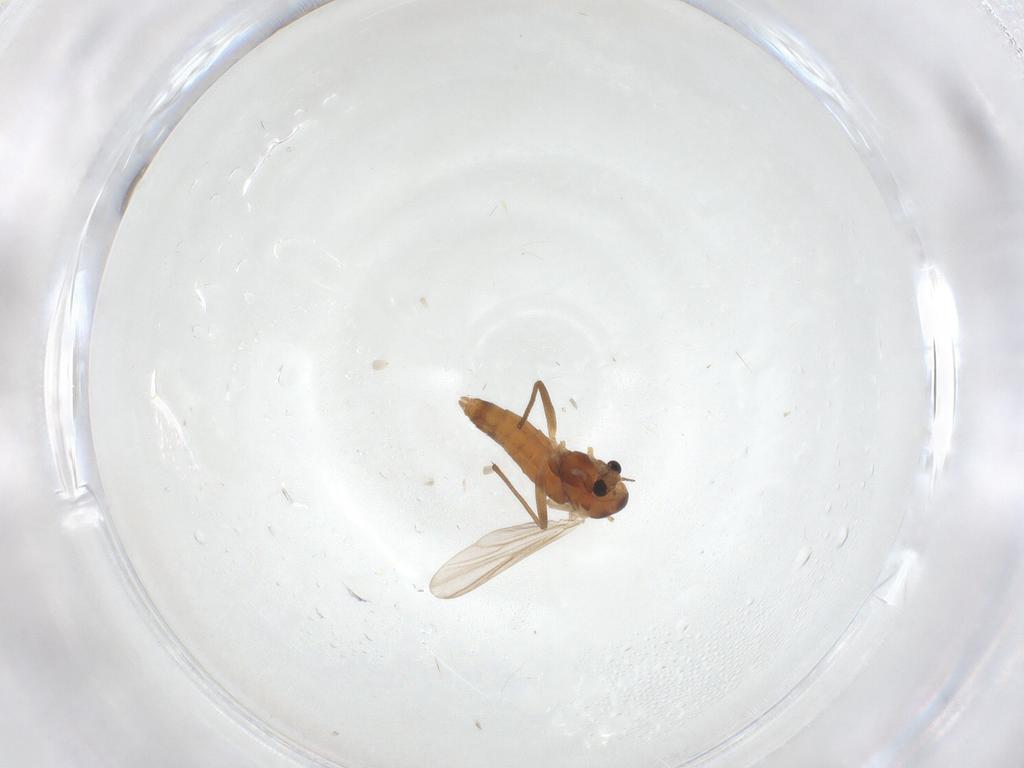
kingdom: Animalia
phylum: Arthropoda
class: Insecta
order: Diptera
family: Chironomidae
